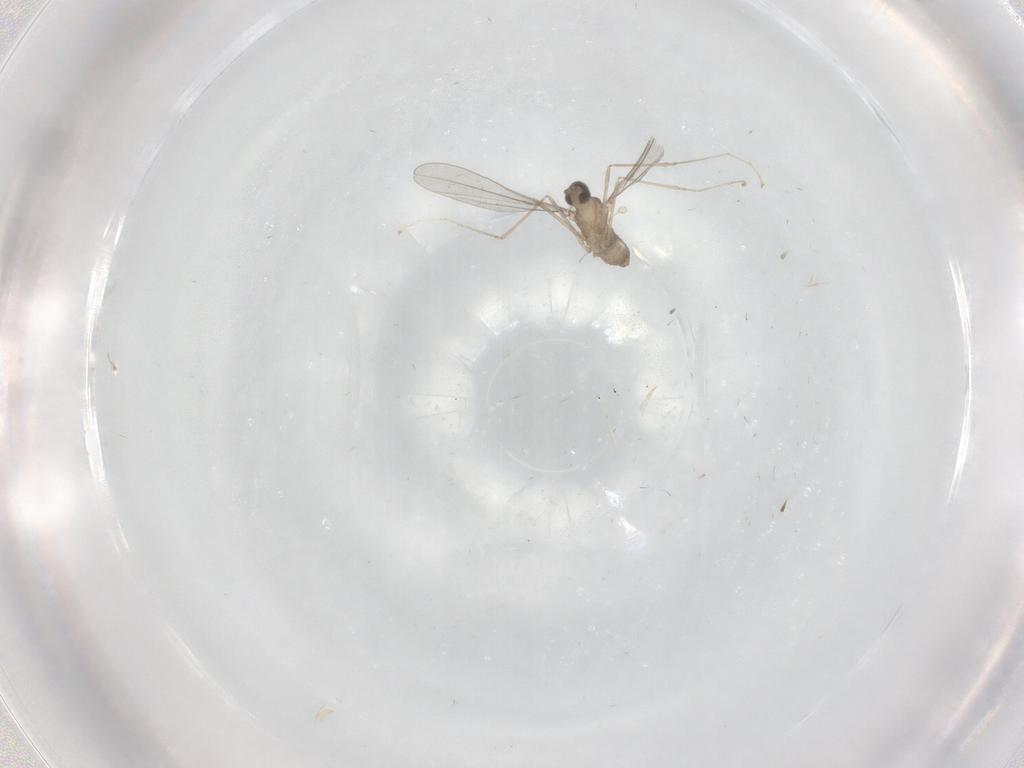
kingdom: Animalia
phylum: Arthropoda
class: Insecta
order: Diptera
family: Cecidomyiidae
